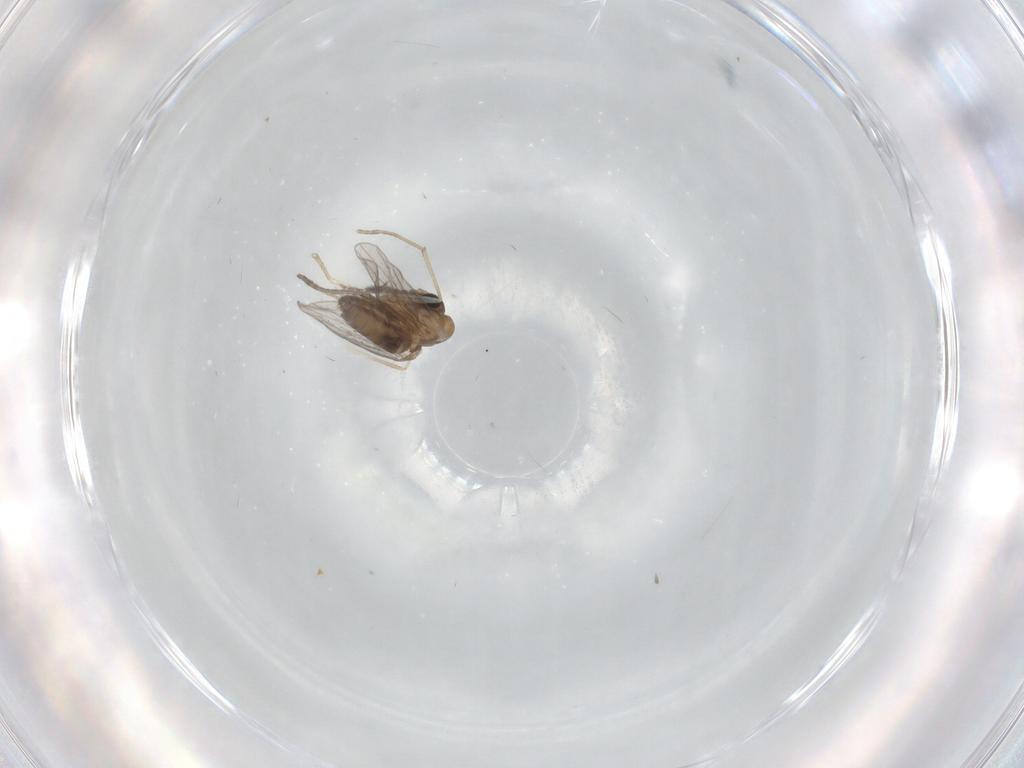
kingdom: Animalia
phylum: Arthropoda
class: Insecta
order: Diptera
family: Cecidomyiidae
